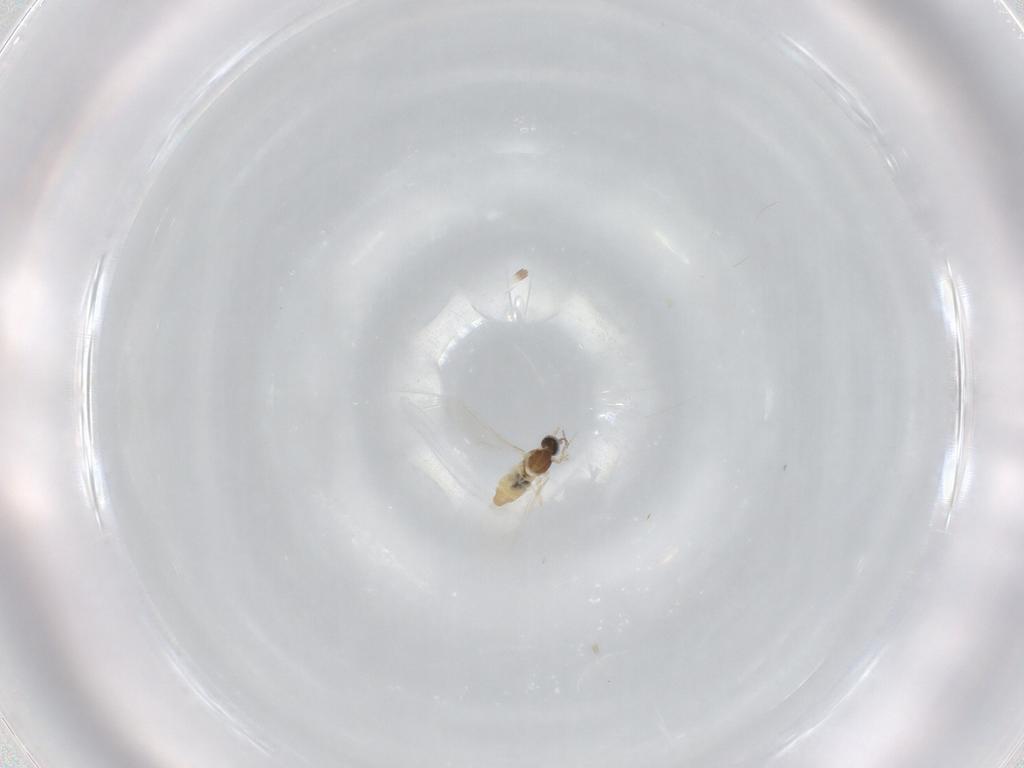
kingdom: Animalia
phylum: Arthropoda
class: Insecta
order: Diptera
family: Cecidomyiidae
